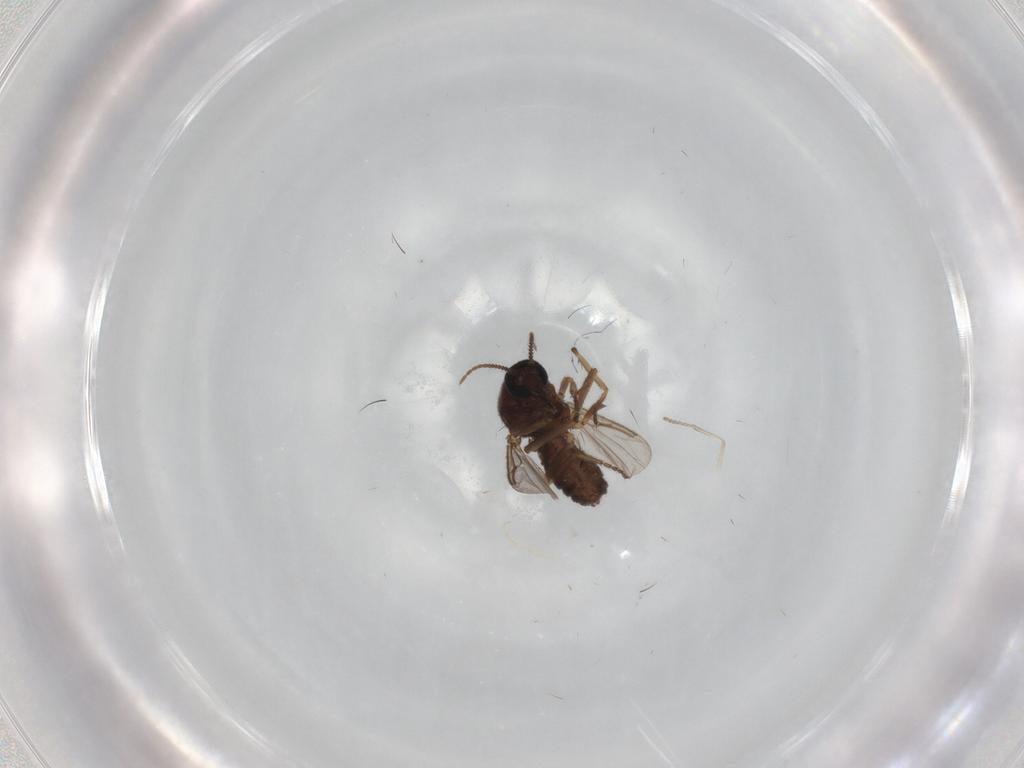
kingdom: Animalia
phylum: Arthropoda
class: Insecta
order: Diptera
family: Ceratopogonidae
